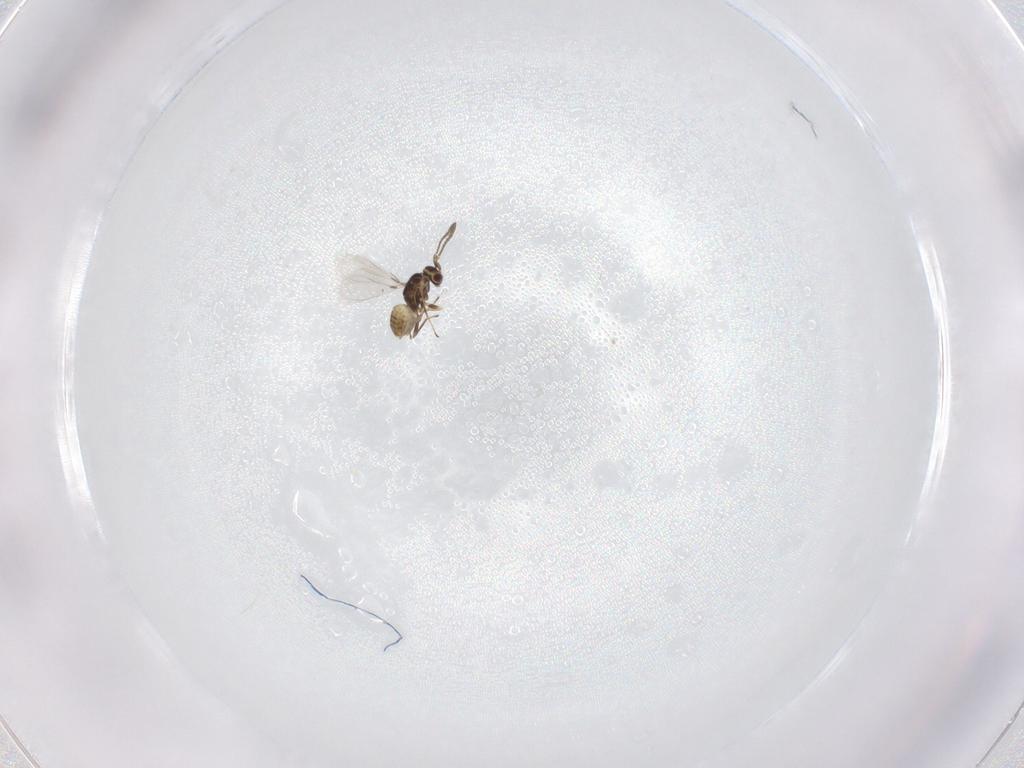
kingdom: Animalia
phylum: Arthropoda
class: Insecta
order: Hymenoptera
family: Mymaridae
